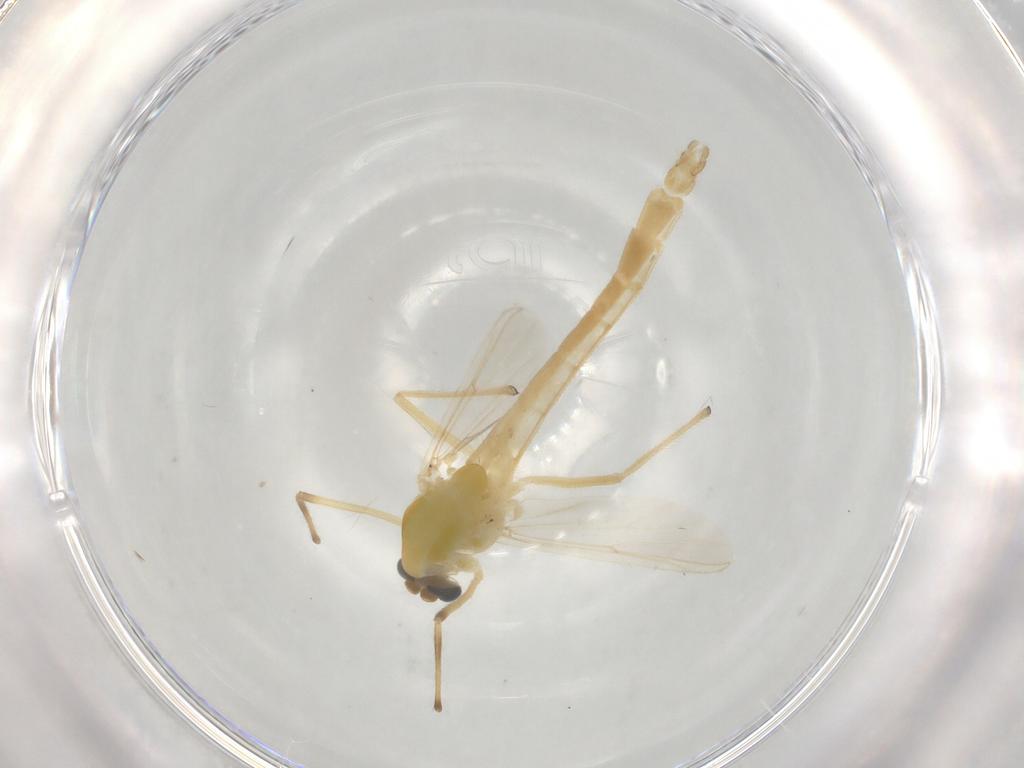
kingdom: Animalia
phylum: Arthropoda
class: Insecta
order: Diptera
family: Chironomidae
